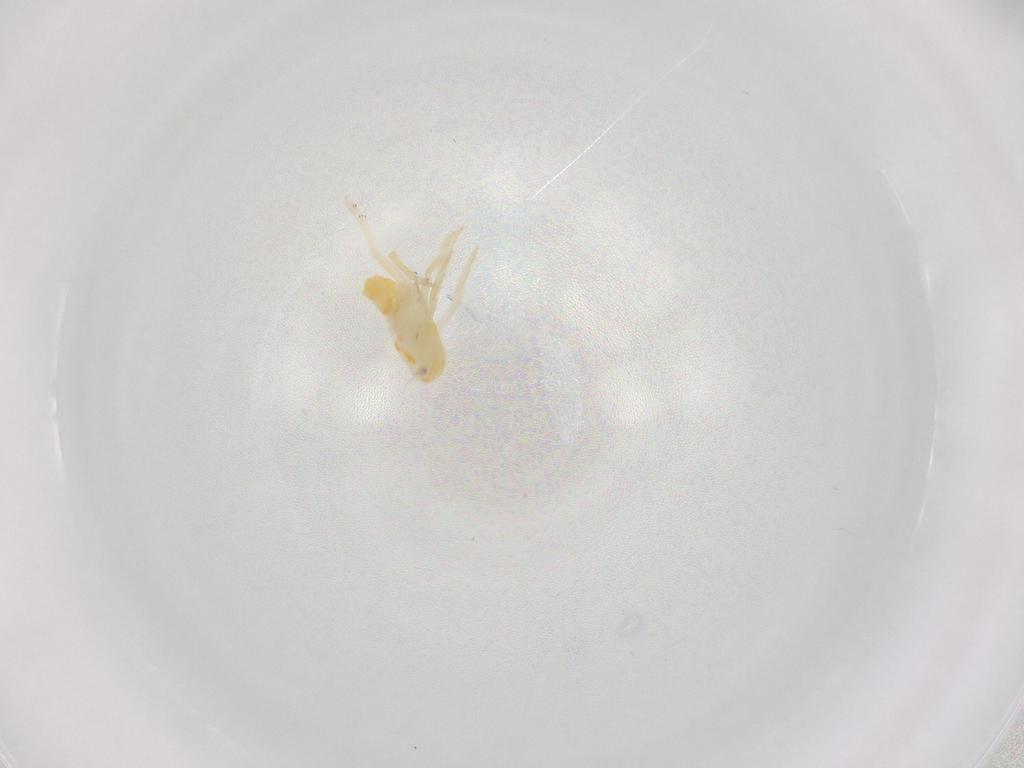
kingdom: Animalia
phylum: Arthropoda
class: Insecta
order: Hemiptera
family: Flatidae
